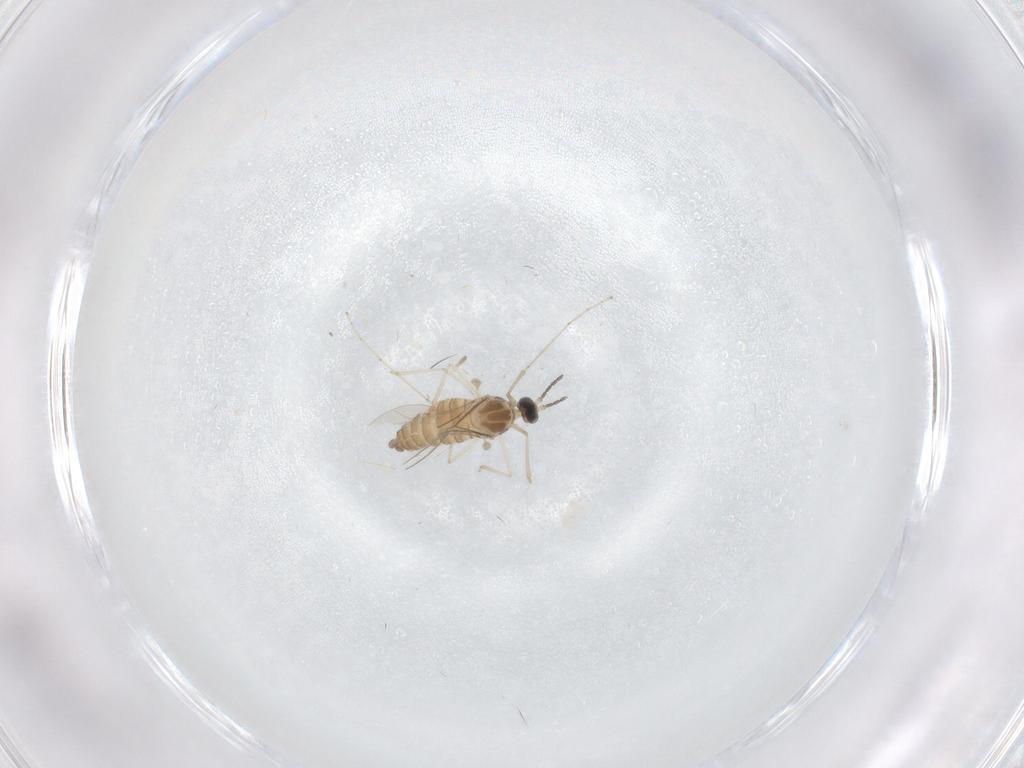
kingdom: Animalia
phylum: Arthropoda
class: Insecta
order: Diptera
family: Cecidomyiidae
